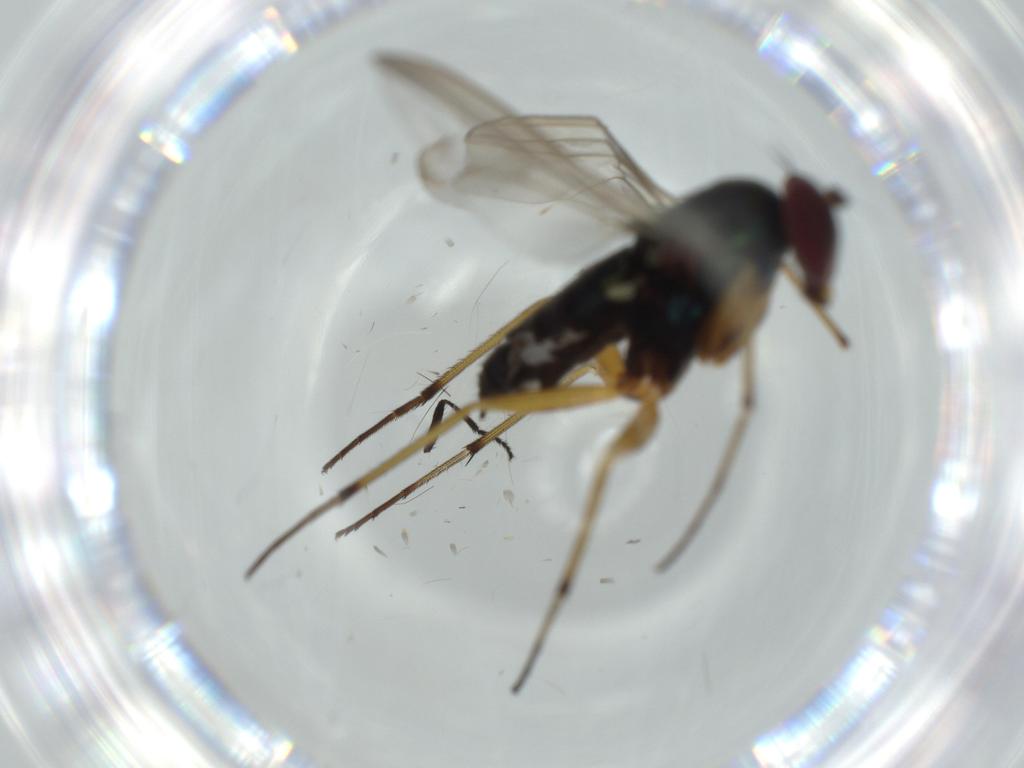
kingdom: Animalia
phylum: Arthropoda
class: Insecta
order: Diptera
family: Dolichopodidae
